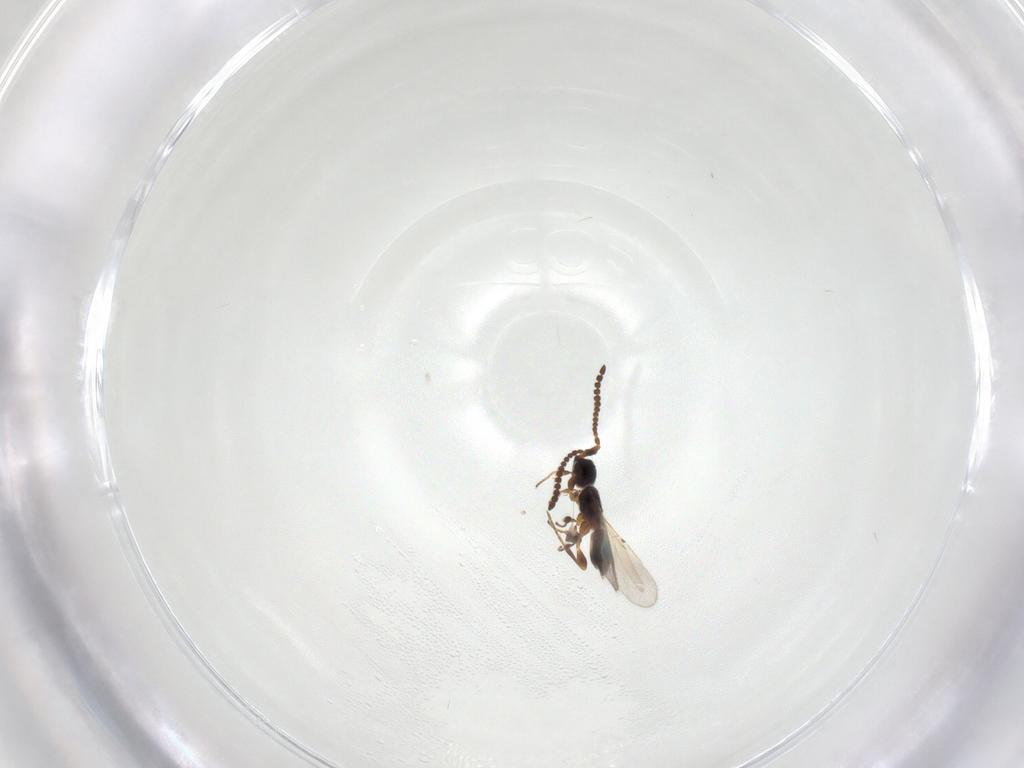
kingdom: Animalia
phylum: Arthropoda
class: Insecta
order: Hymenoptera
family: Diapriidae
